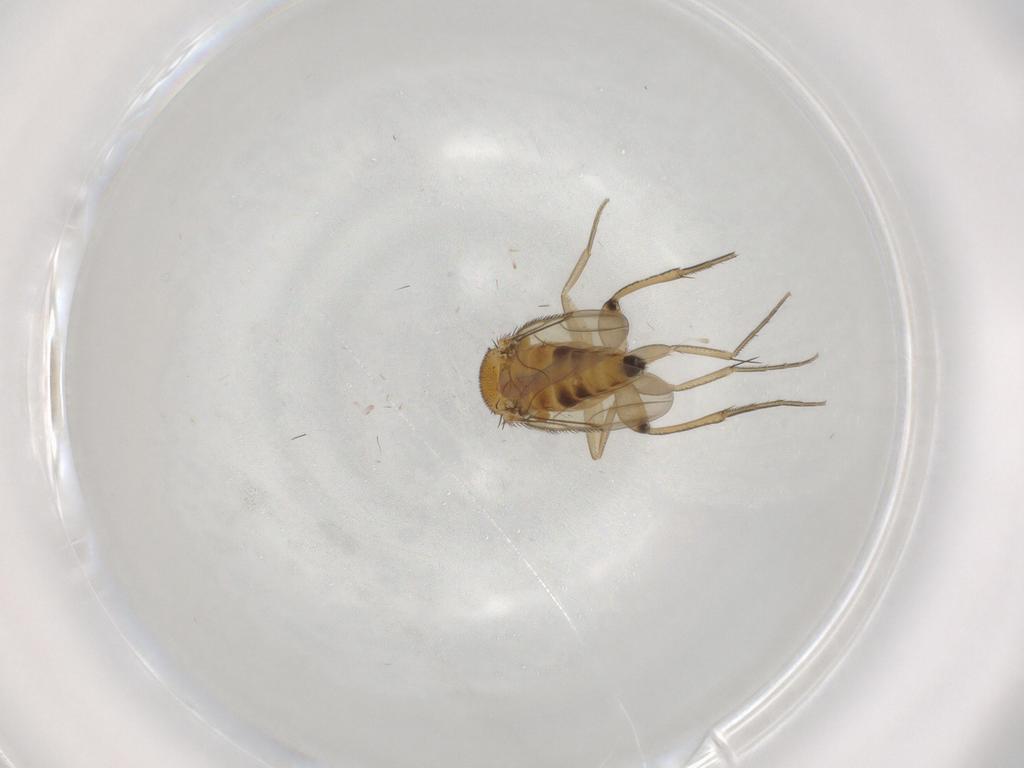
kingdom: Animalia
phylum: Arthropoda
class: Insecta
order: Diptera
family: Phoridae
